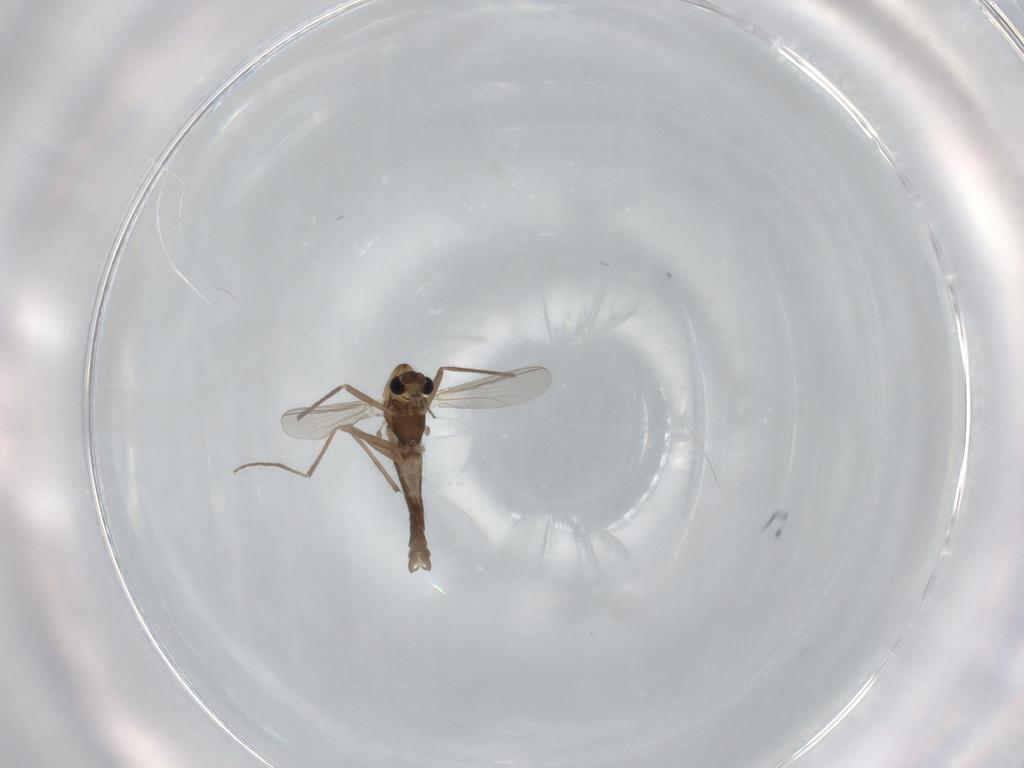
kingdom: Animalia
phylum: Arthropoda
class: Insecta
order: Diptera
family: Chironomidae
